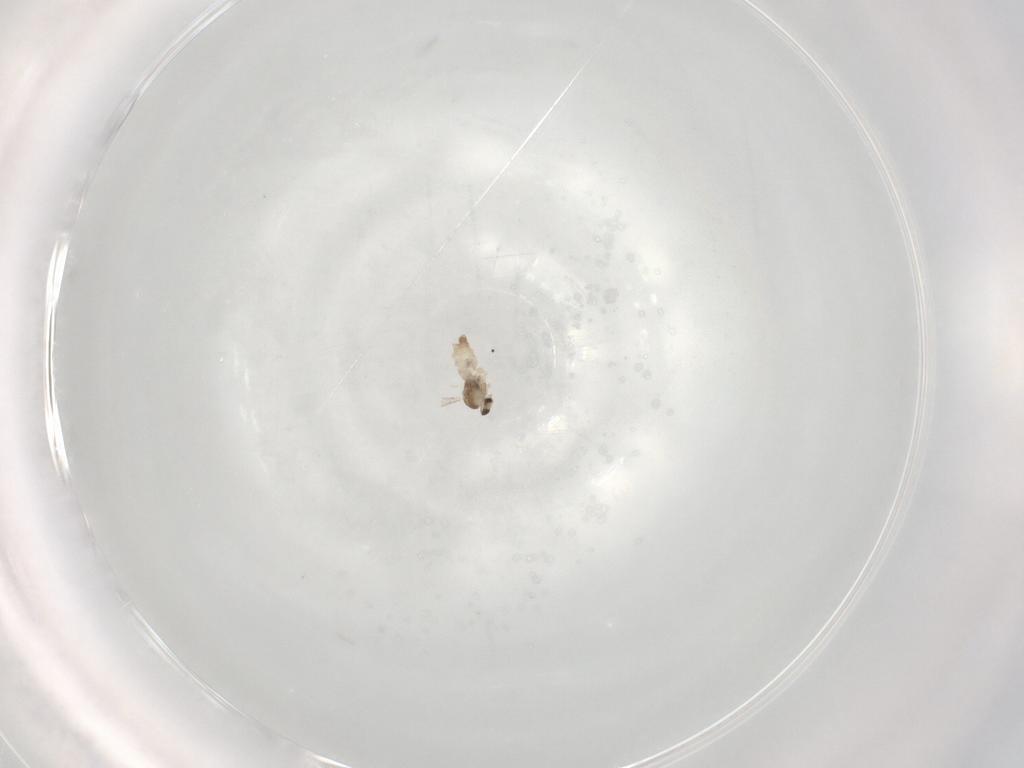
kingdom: Animalia
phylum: Arthropoda
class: Insecta
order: Diptera
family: Cecidomyiidae
